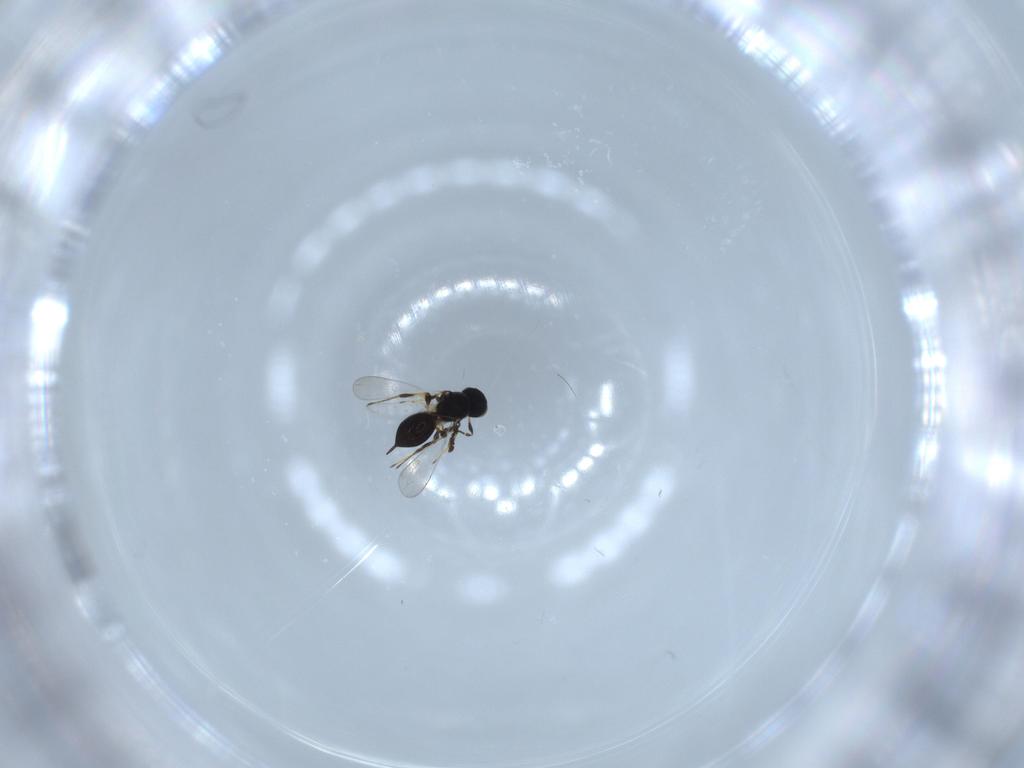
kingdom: Animalia
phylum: Arthropoda
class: Insecta
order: Hymenoptera
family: Platygastridae
